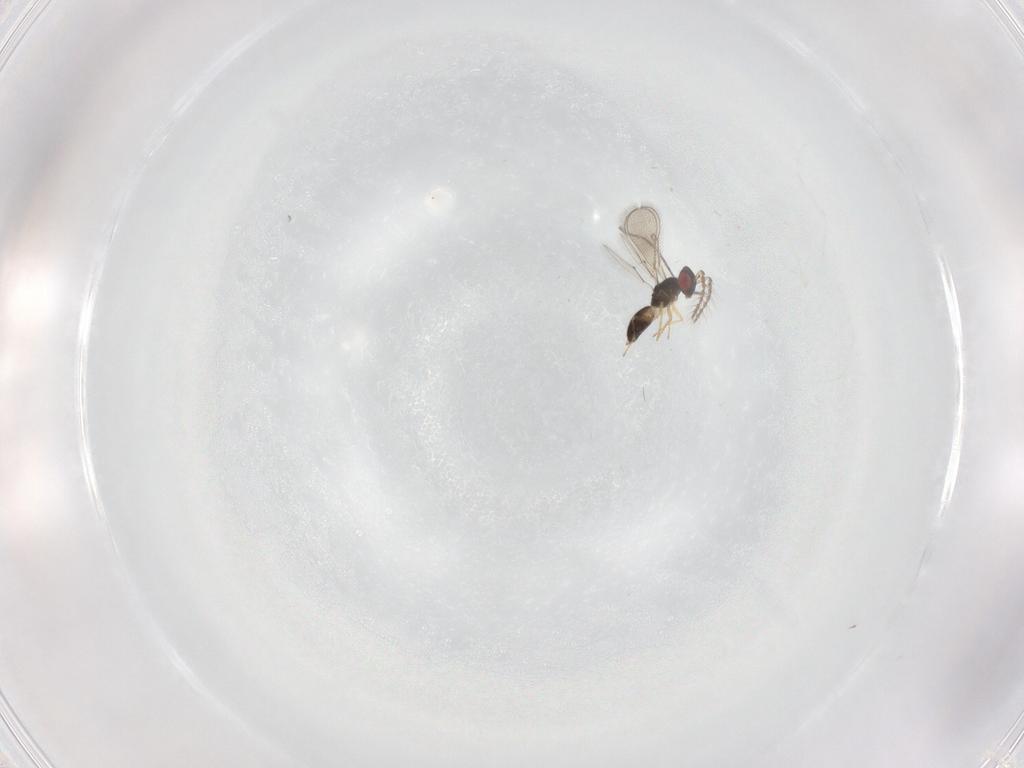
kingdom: Animalia
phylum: Arthropoda
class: Insecta
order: Hymenoptera
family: Eulophidae
